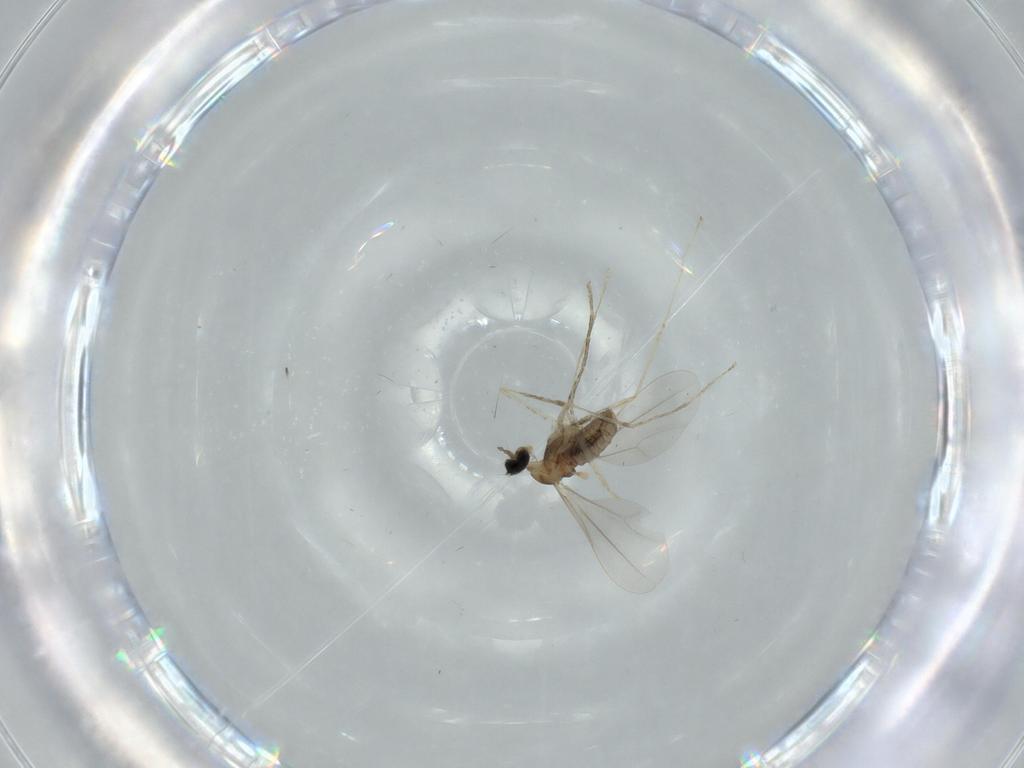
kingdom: Animalia
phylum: Arthropoda
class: Insecta
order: Diptera
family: Cecidomyiidae
